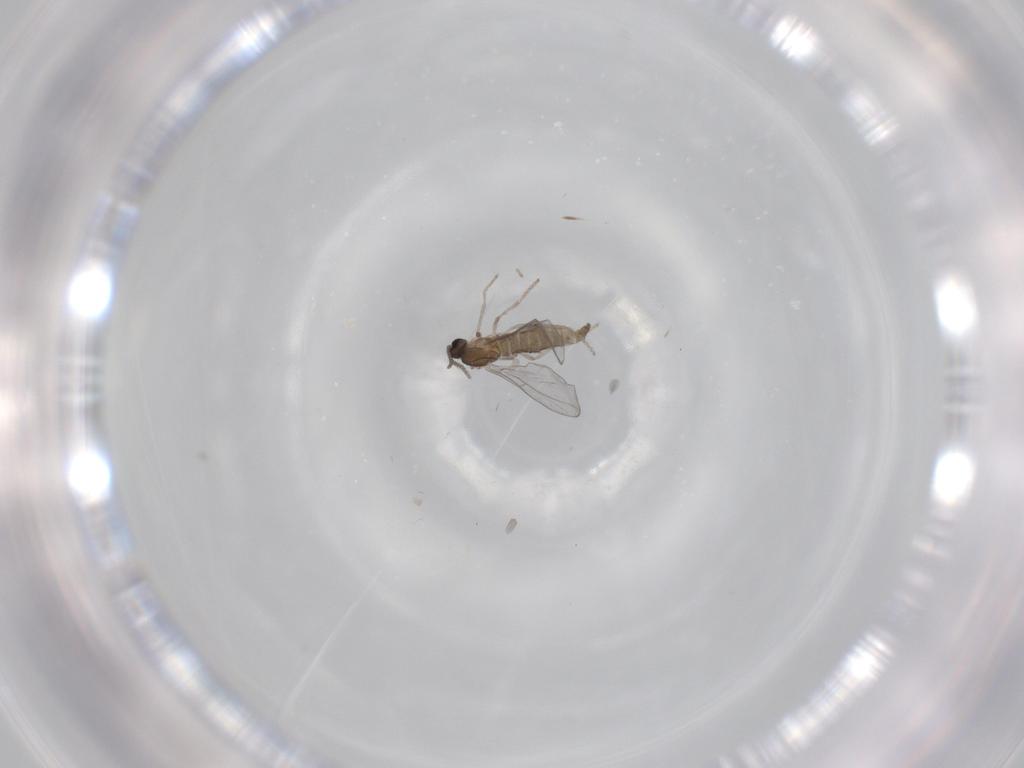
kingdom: Animalia
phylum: Arthropoda
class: Insecta
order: Diptera
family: Cecidomyiidae
